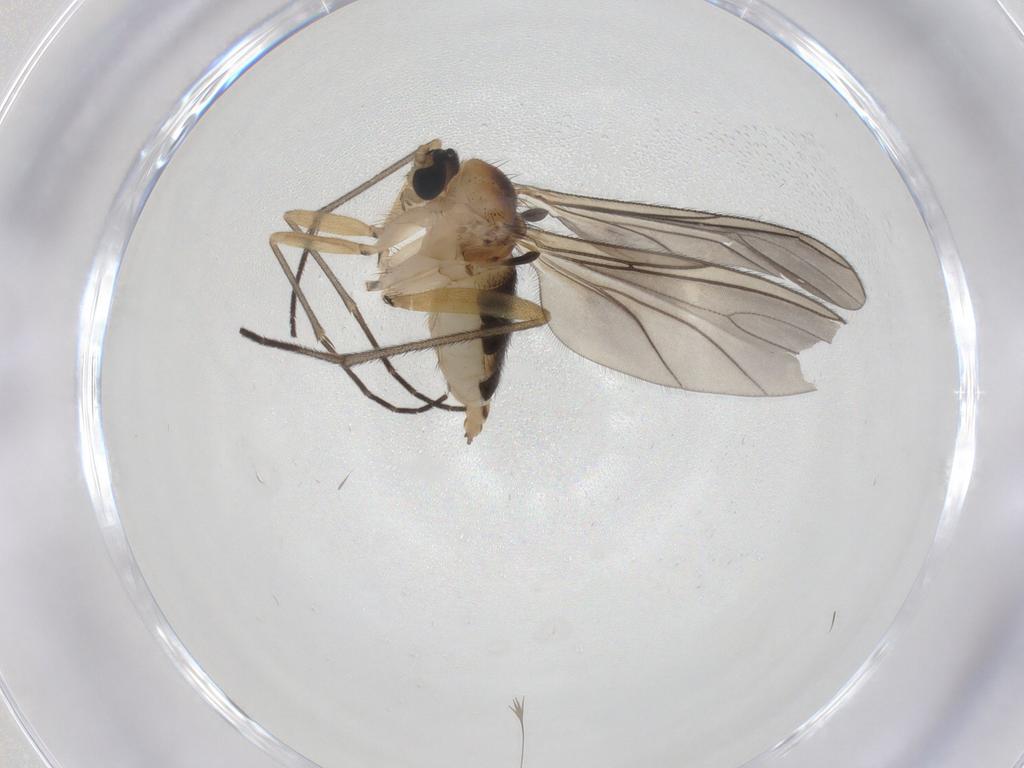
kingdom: Animalia
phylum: Arthropoda
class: Insecta
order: Diptera
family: Sciaridae
